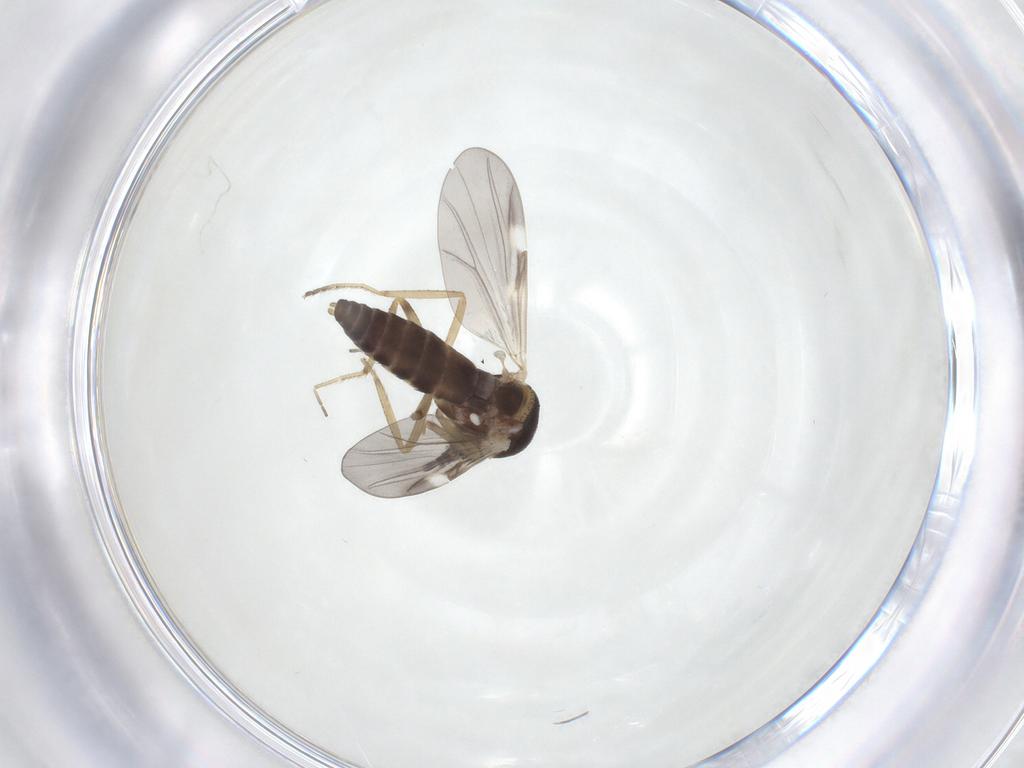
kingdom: Animalia
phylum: Arthropoda
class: Insecta
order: Diptera
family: Ceratopogonidae
